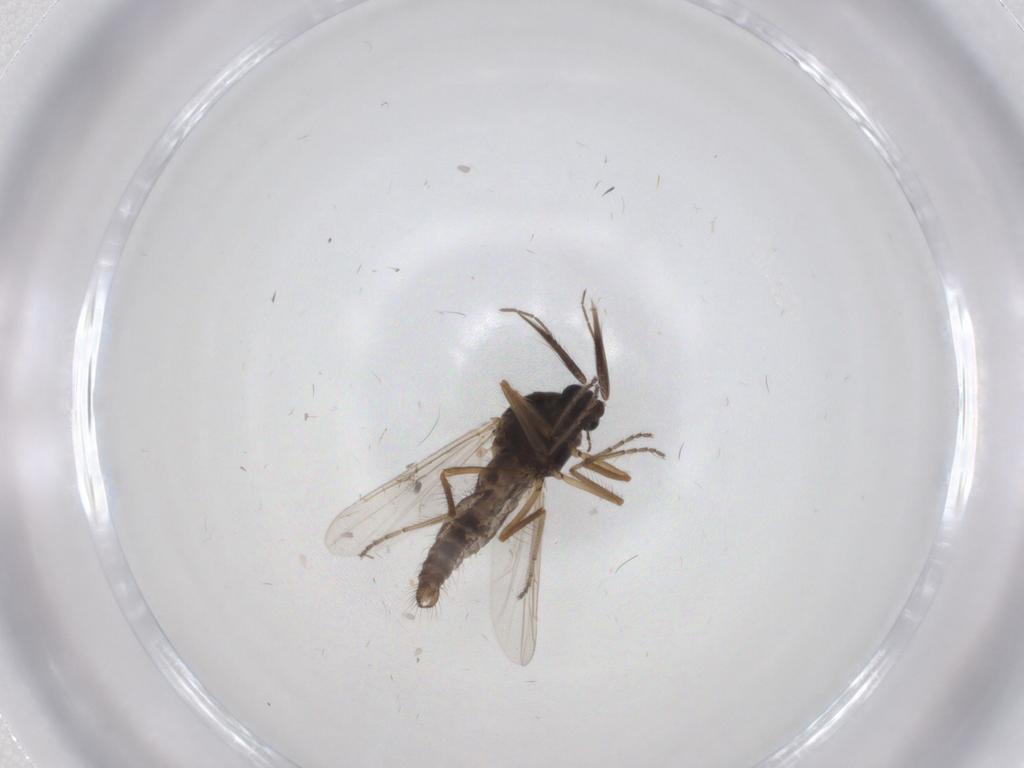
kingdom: Animalia
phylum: Arthropoda
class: Insecta
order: Diptera
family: Ceratopogonidae
